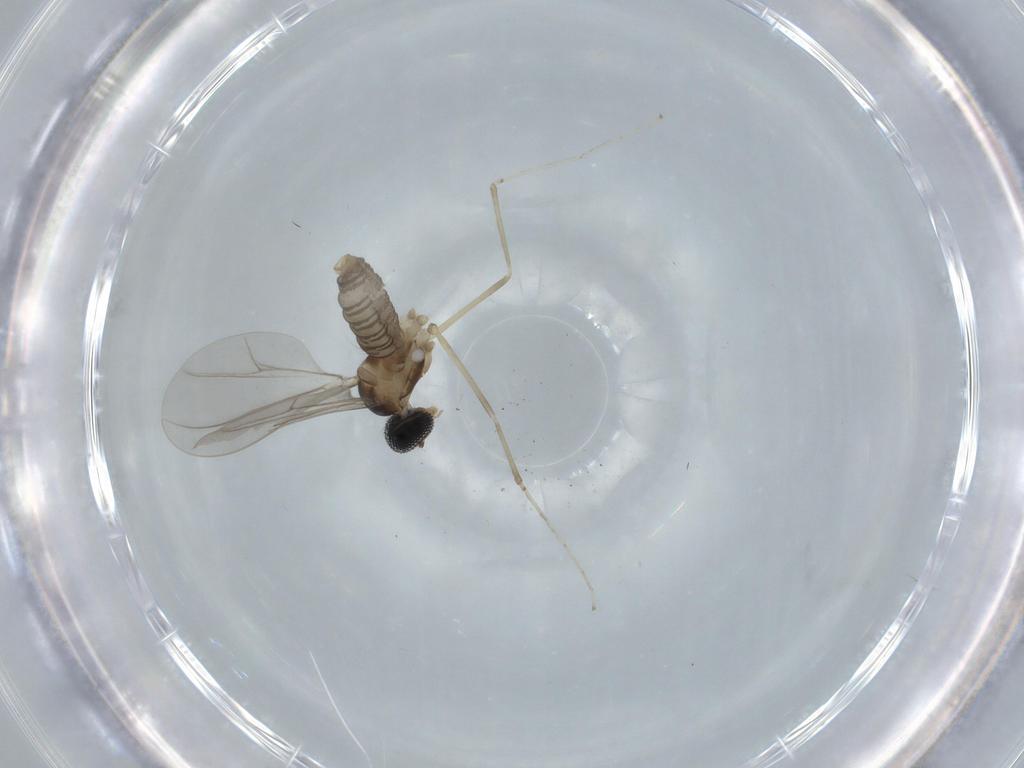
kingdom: Animalia
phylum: Arthropoda
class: Insecta
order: Diptera
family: Cecidomyiidae
